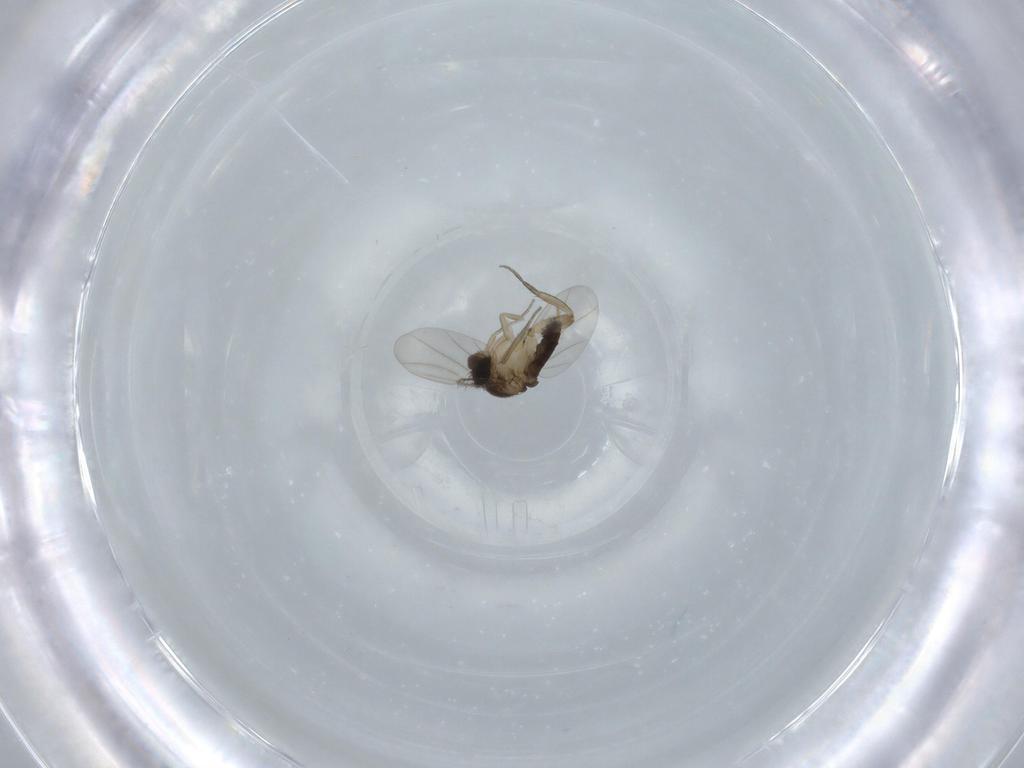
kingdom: Animalia
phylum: Arthropoda
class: Insecta
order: Diptera
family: Phoridae
